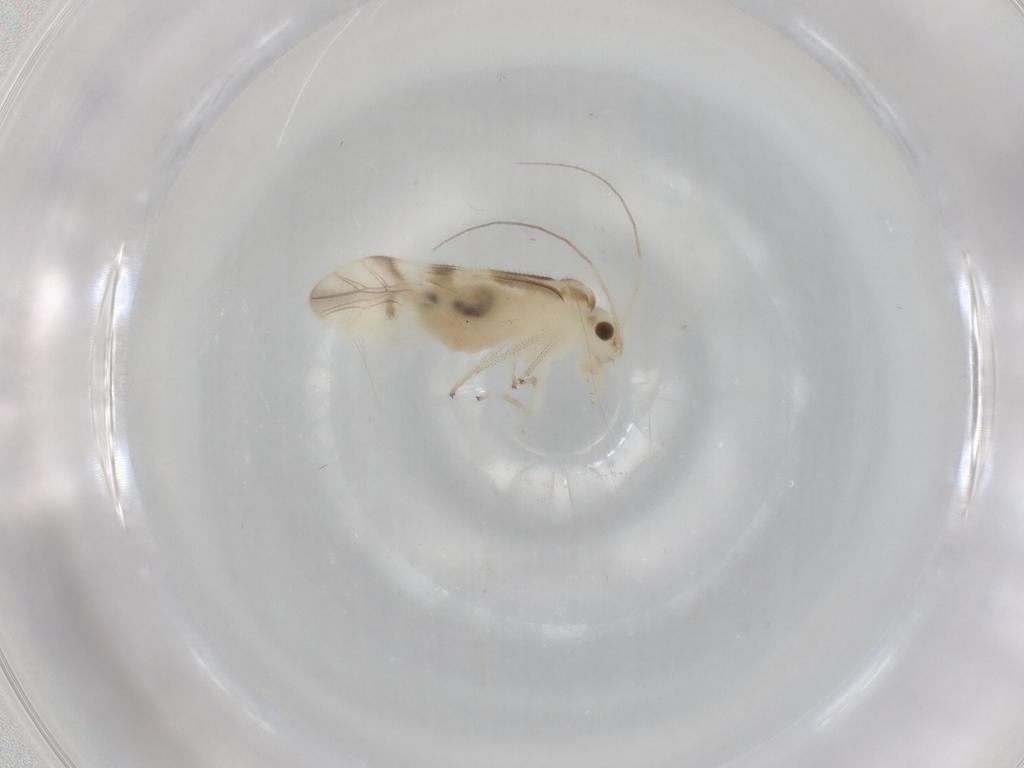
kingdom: Animalia
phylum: Arthropoda
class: Insecta
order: Psocodea
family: Caeciliusidae
